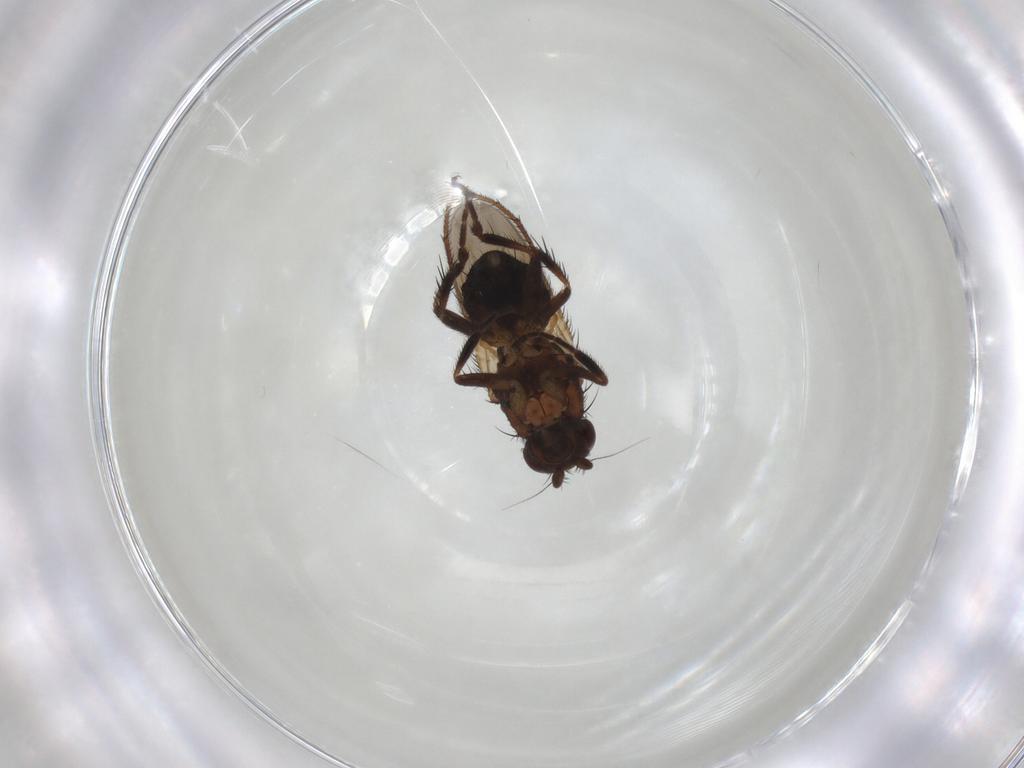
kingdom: Animalia
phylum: Arthropoda
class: Insecta
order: Diptera
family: Sphaeroceridae
